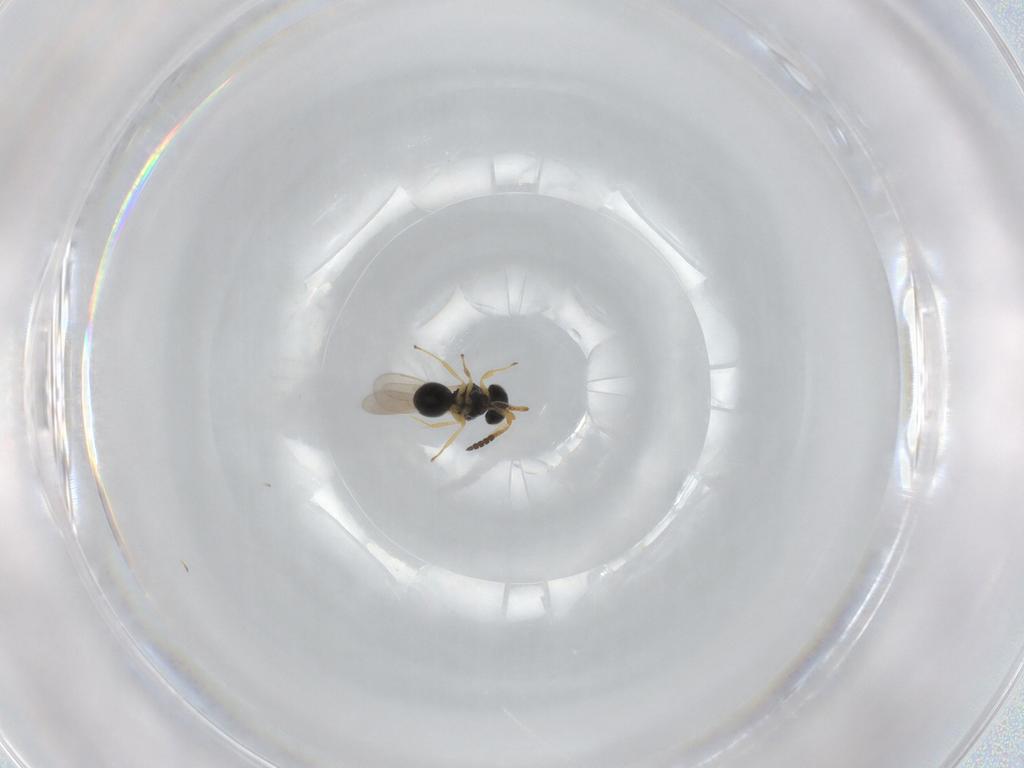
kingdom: Animalia
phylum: Arthropoda
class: Insecta
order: Hymenoptera
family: Scelionidae
